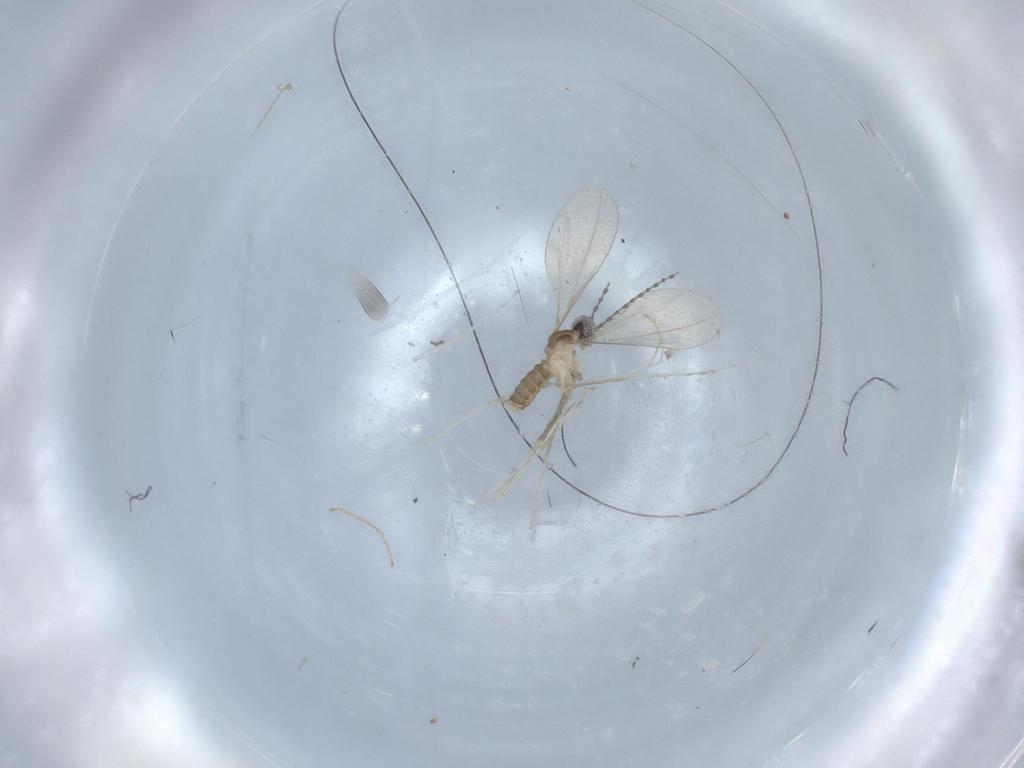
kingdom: Animalia
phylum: Arthropoda
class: Insecta
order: Diptera
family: Cecidomyiidae
